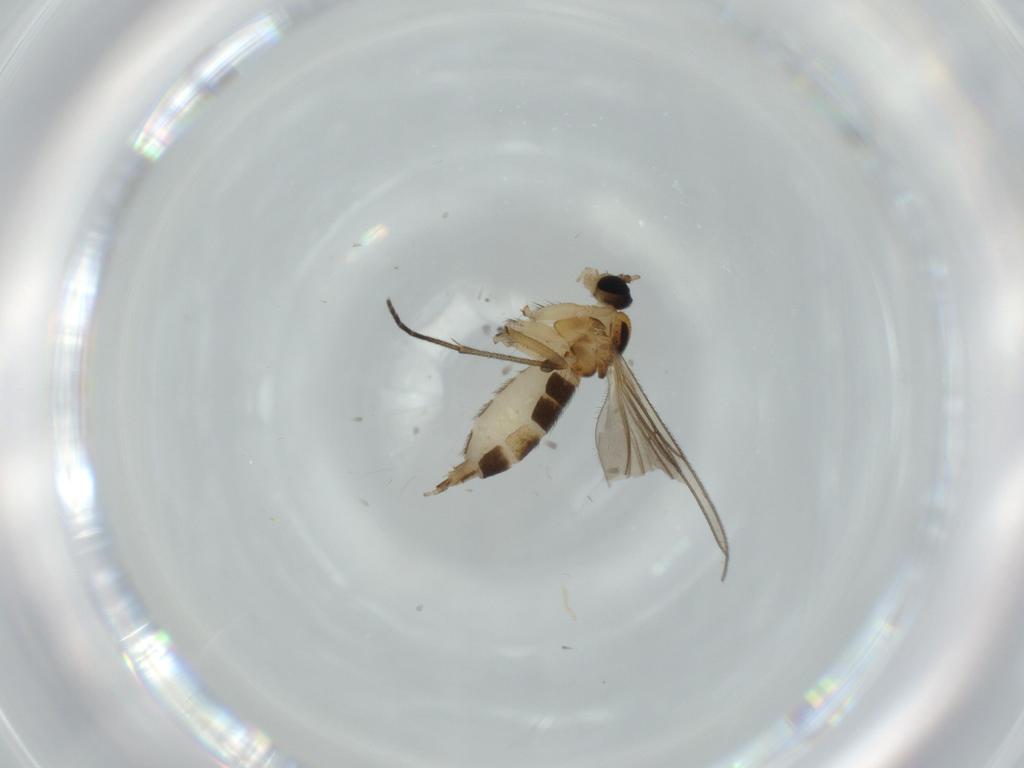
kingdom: Animalia
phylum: Arthropoda
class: Insecta
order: Diptera
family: Sciaridae
